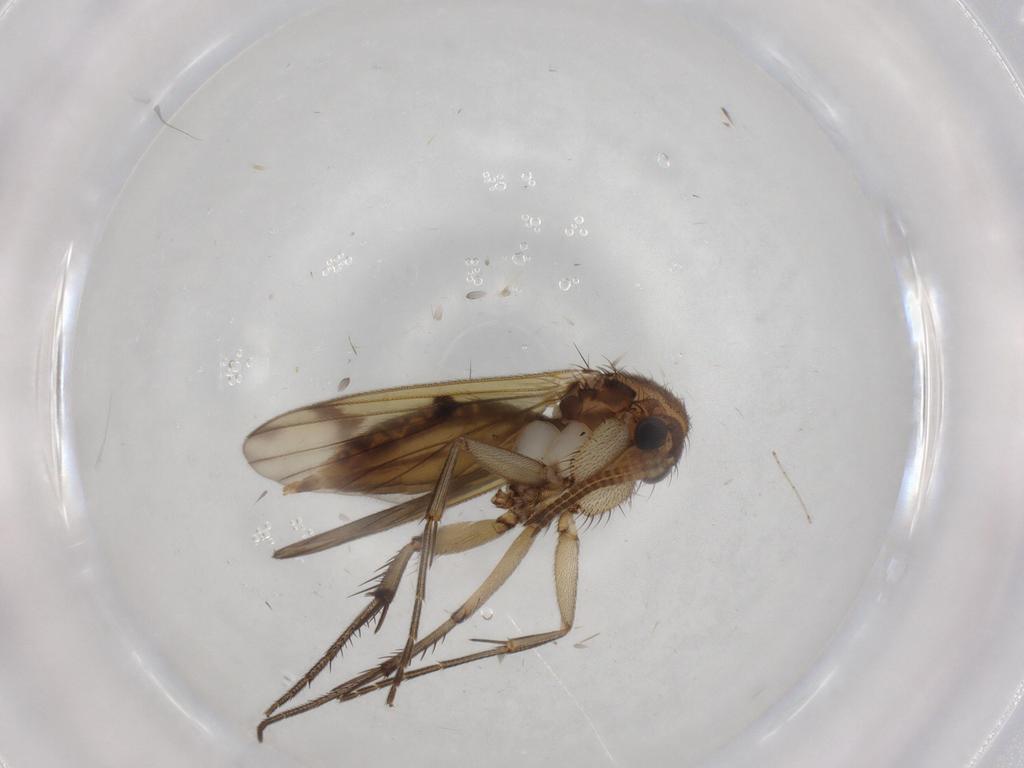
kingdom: Animalia
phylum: Arthropoda
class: Insecta
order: Diptera
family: Mycetophilidae
